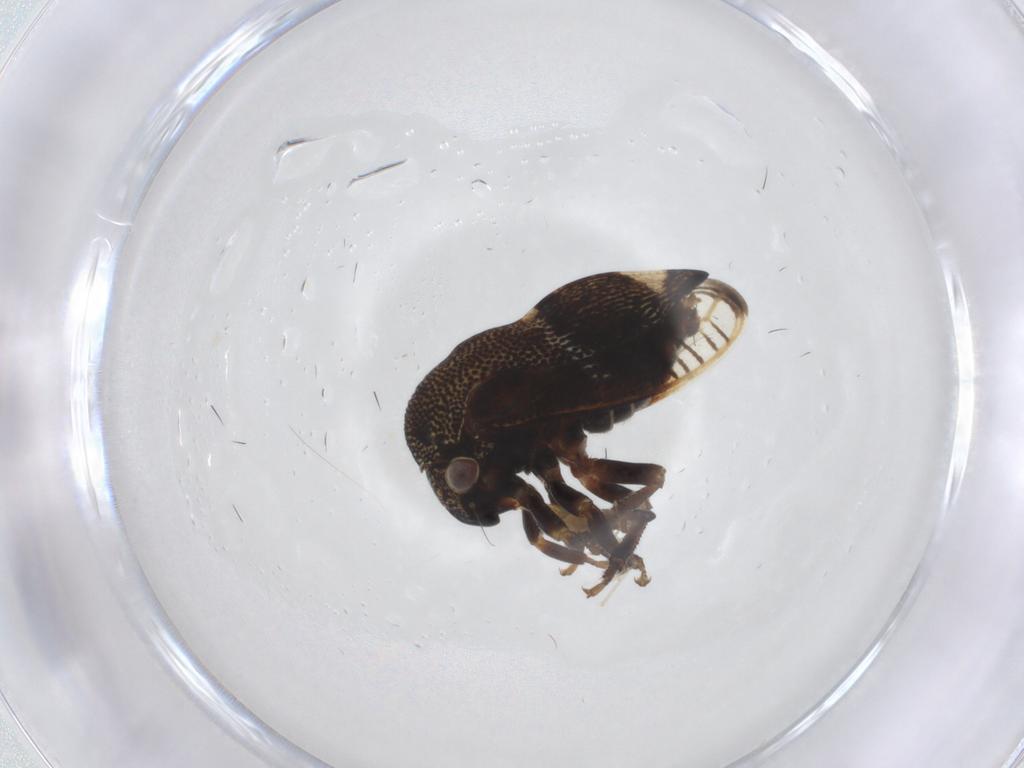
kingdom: Animalia
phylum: Arthropoda
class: Insecta
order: Hemiptera
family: Membracidae
